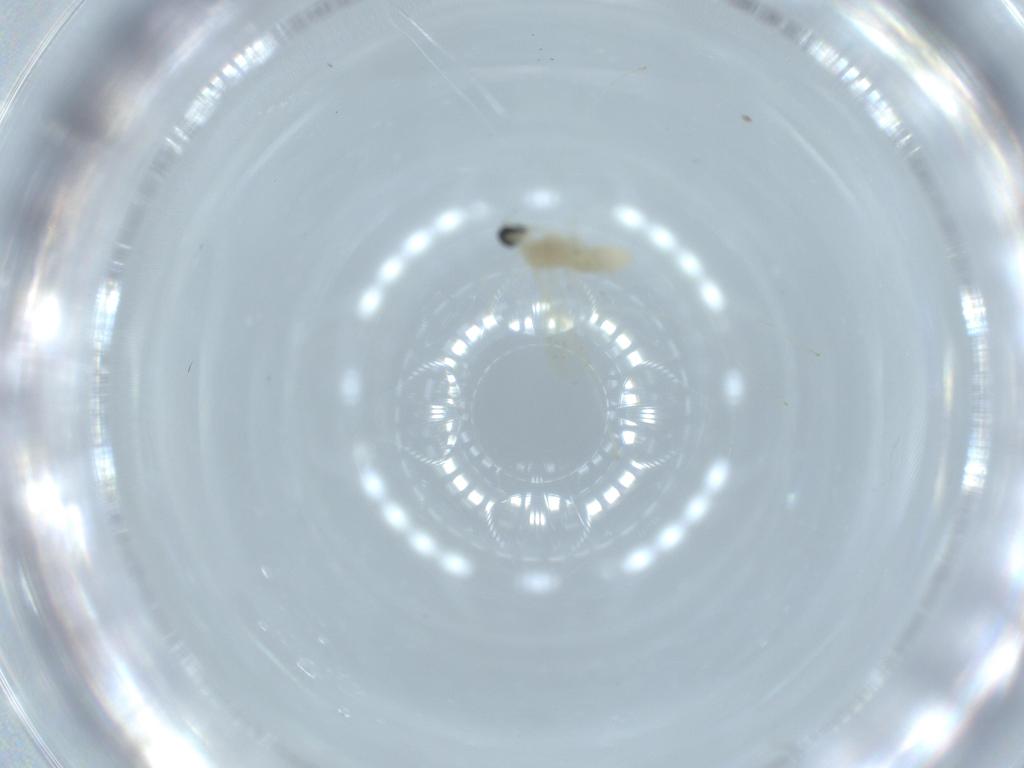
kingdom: Animalia
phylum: Arthropoda
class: Insecta
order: Diptera
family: Cecidomyiidae
